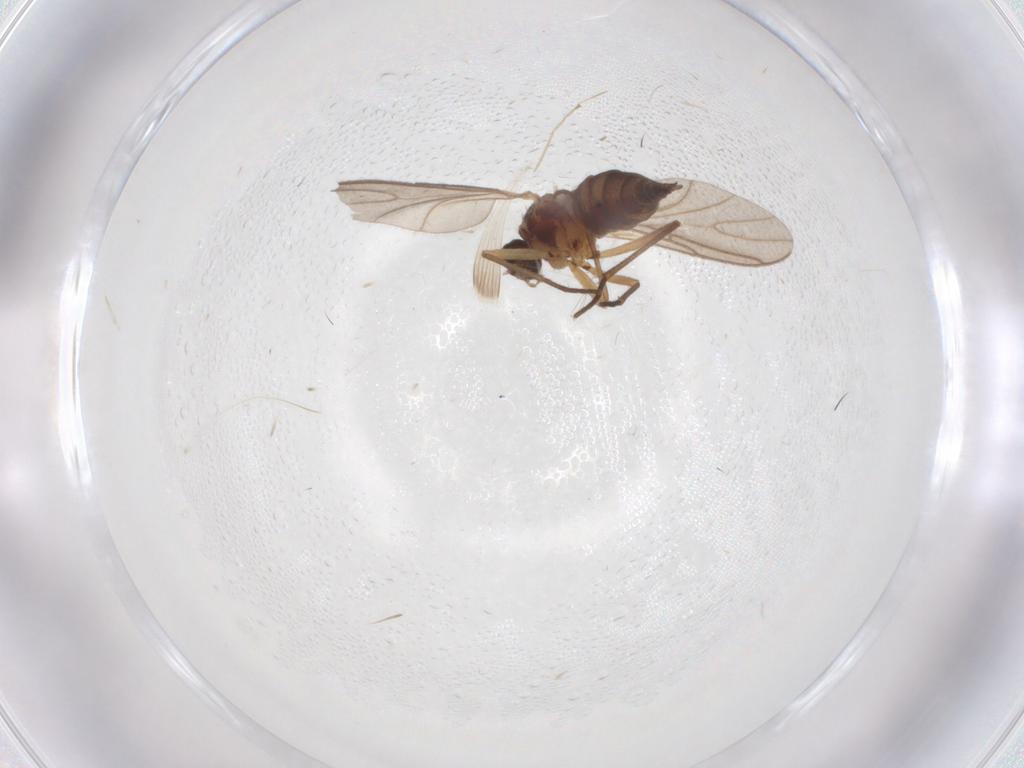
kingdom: Animalia
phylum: Arthropoda
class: Insecta
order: Diptera
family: Sciaridae
